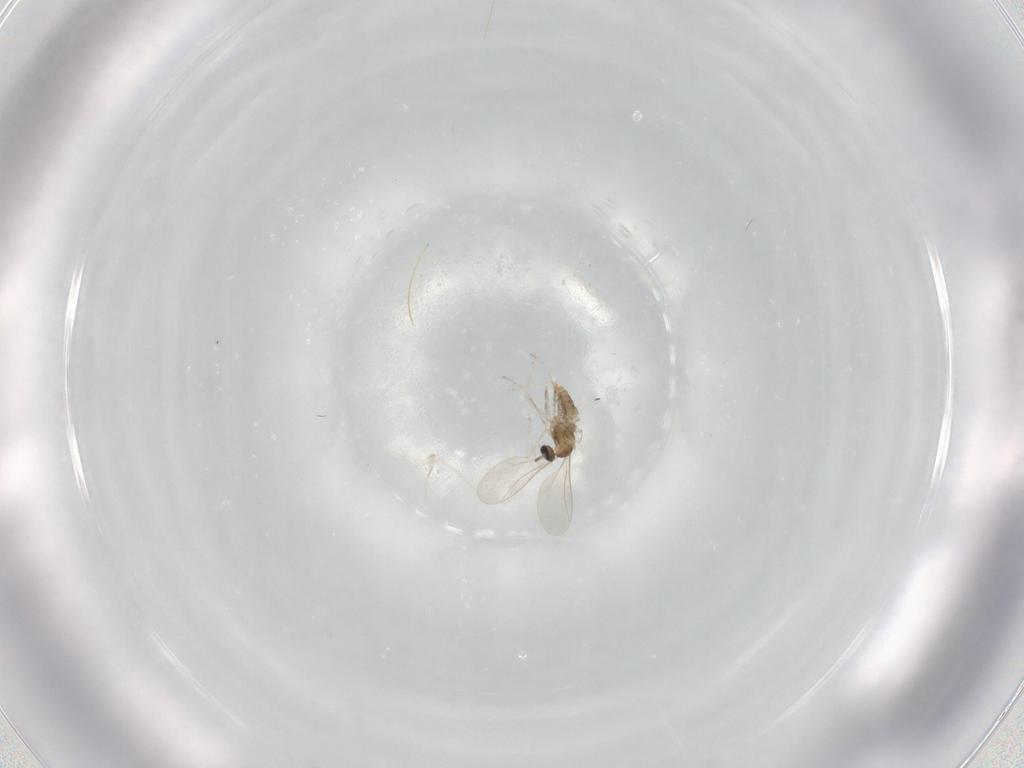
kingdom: Animalia
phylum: Arthropoda
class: Insecta
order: Diptera
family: Cecidomyiidae
